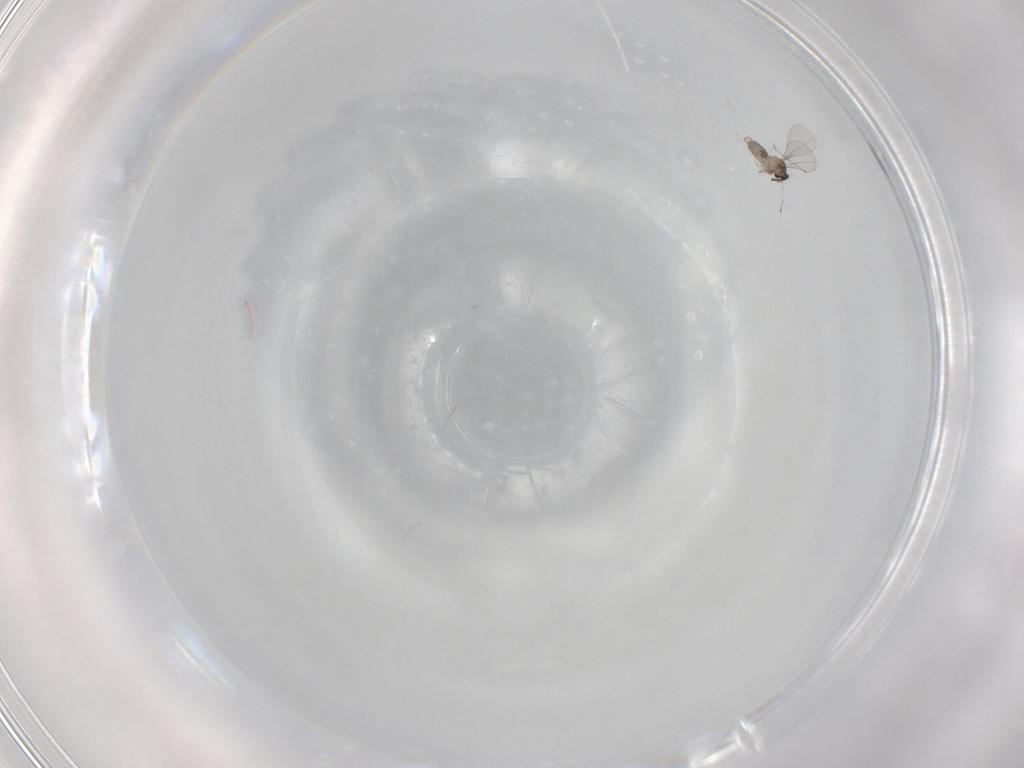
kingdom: Animalia
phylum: Arthropoda
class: Insecta
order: Diptera
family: Cecidomyiidae
